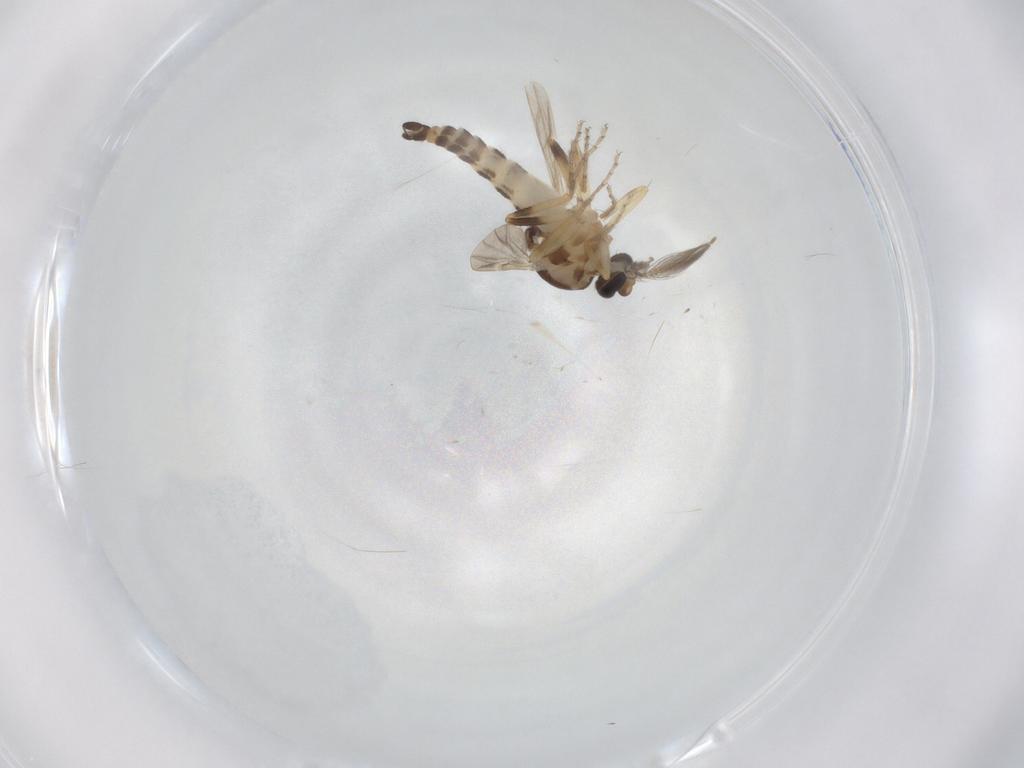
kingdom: Animalia
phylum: Arthropoda
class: Insecta
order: Diptera
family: Ceratopogonidae
